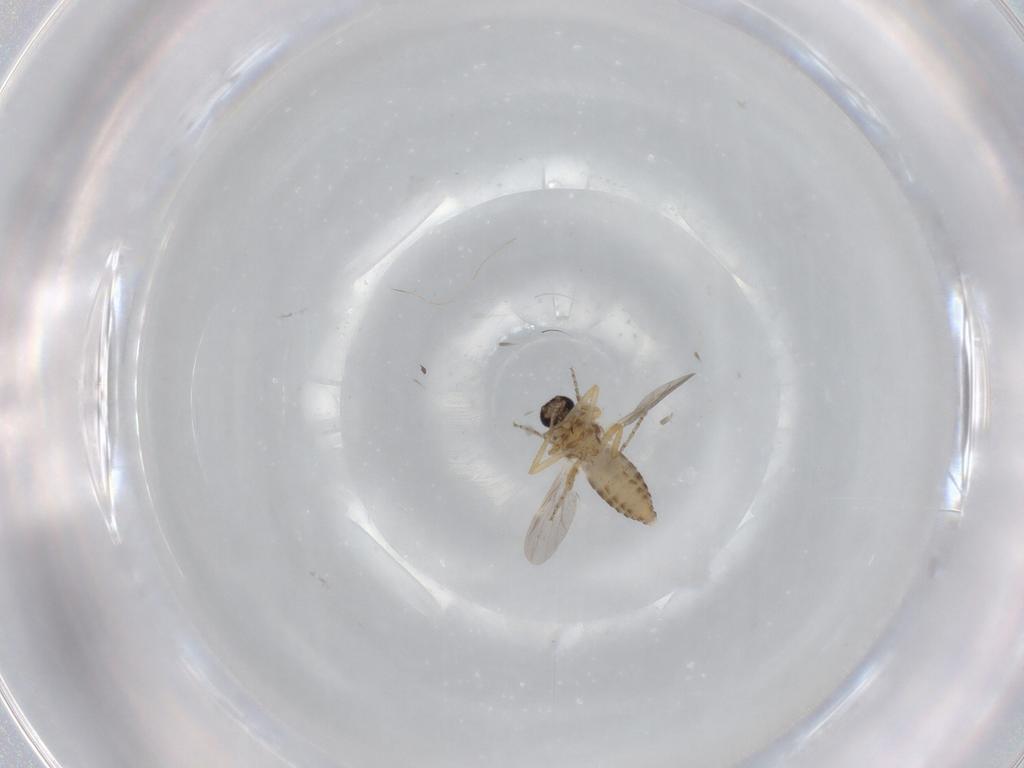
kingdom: Animalia
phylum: Arthropoda
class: Insecta
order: Diptera
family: Ceratopogonidae
